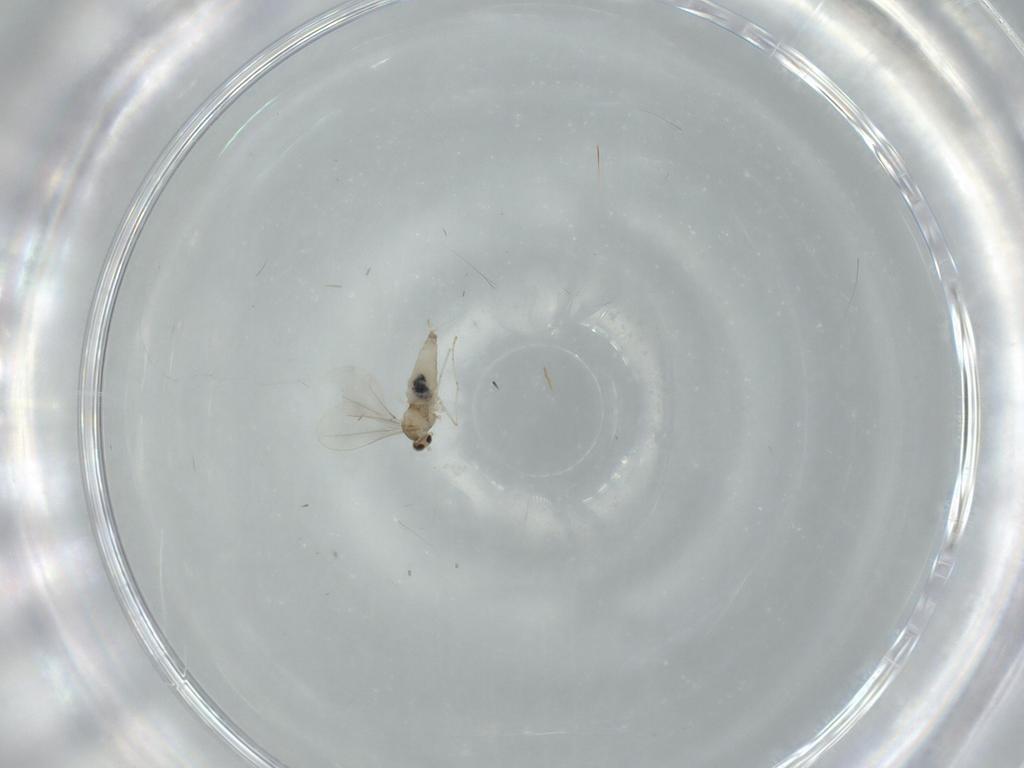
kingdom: Animalia
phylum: Arthropoda
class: Insecta
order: Diptera
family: Cecidomyiidae
